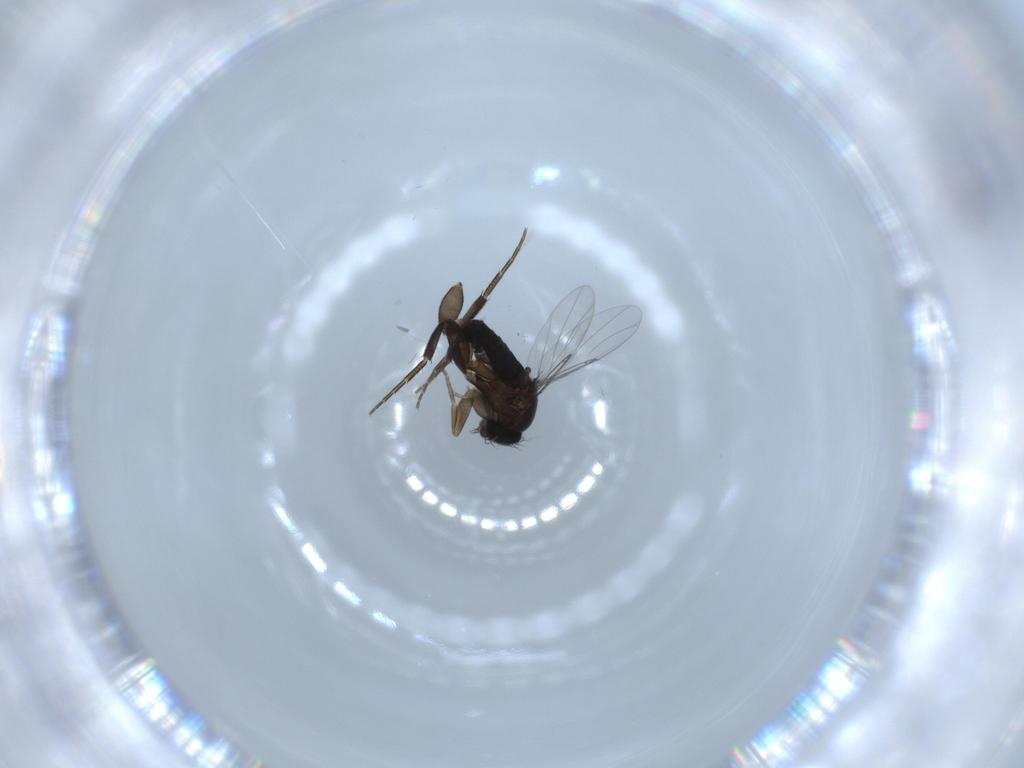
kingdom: Animalia
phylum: Arthropoda
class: Insecta
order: Diptera
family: Phoridae
